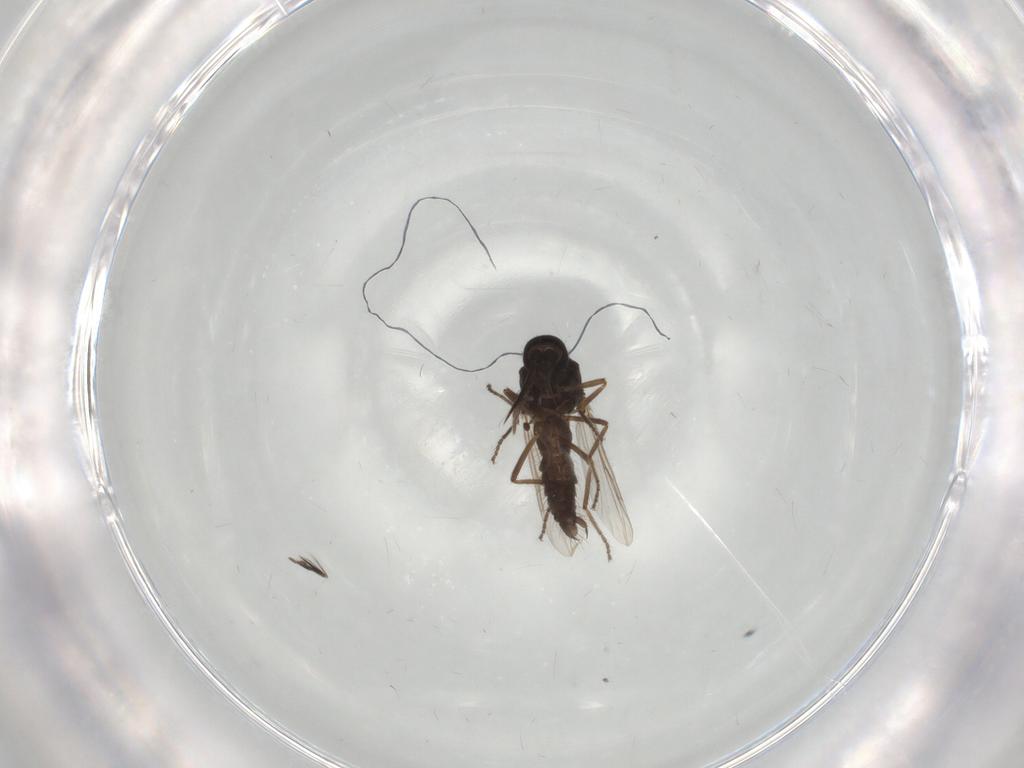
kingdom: Animalia
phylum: Arthropoda
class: Insecta
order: Diptera
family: Ceratopogonidae
